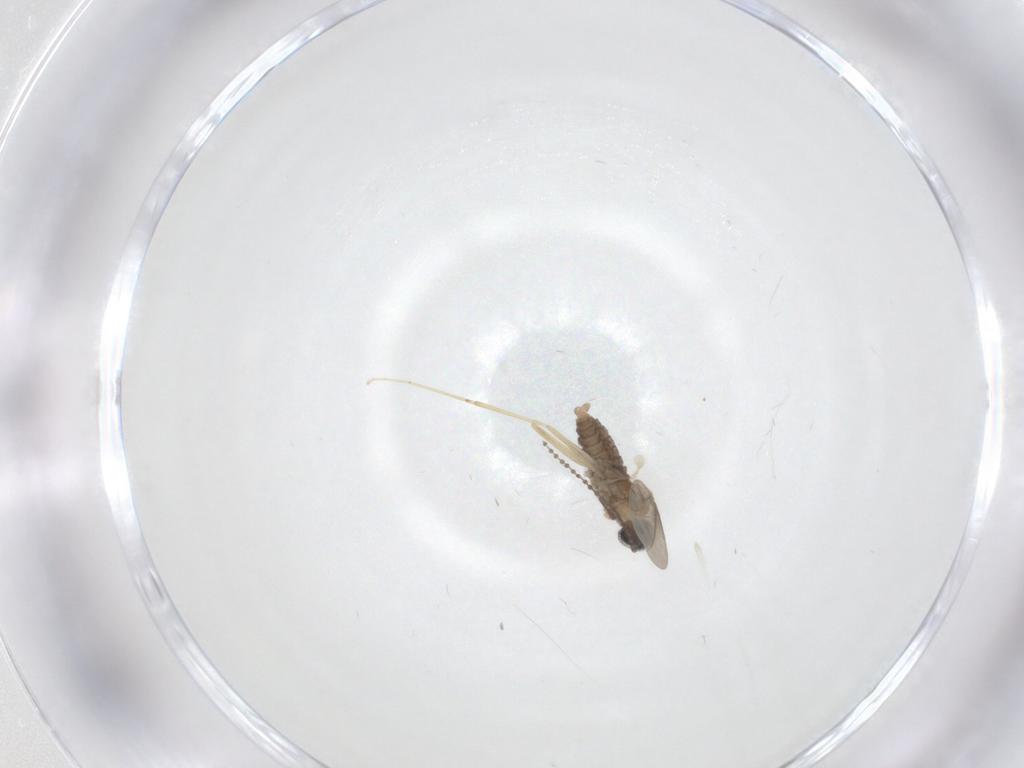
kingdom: Animalia
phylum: Arthropoda
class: Insecta
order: Diptera
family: Ceratopogonidae
